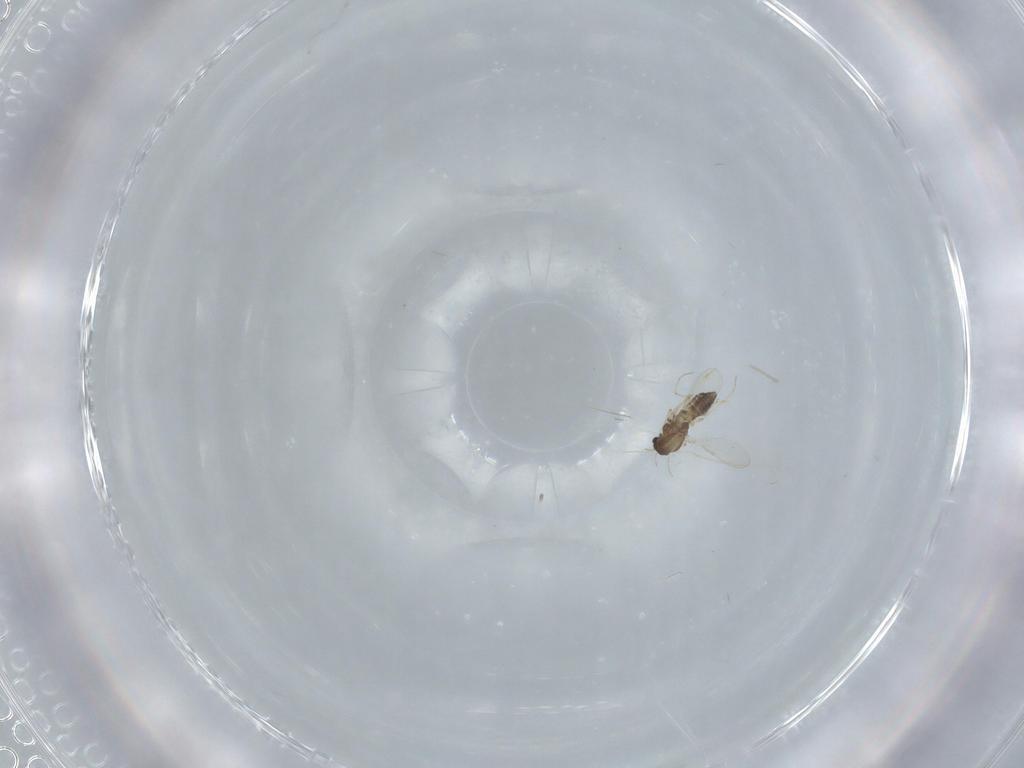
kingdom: Animalia
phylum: Arthropoda
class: Insecta
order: Diptera
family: Chironomidae
